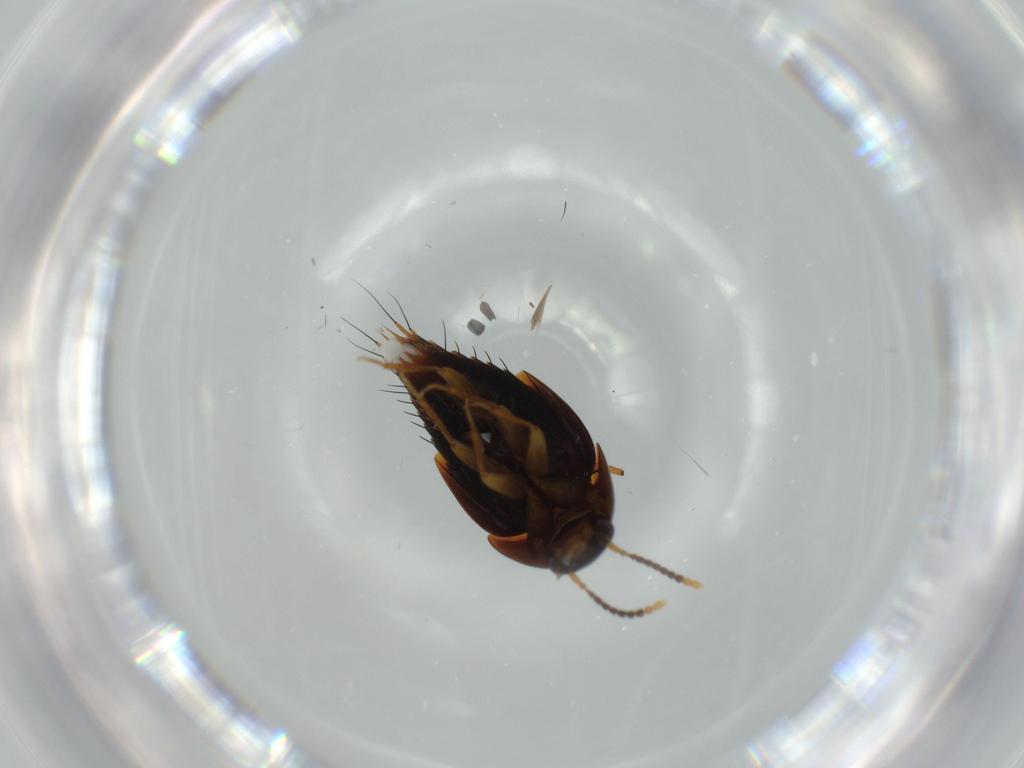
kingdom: Animalia
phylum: Arthropoda
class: Insecta
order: Coleoptera
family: Staphylinidae
